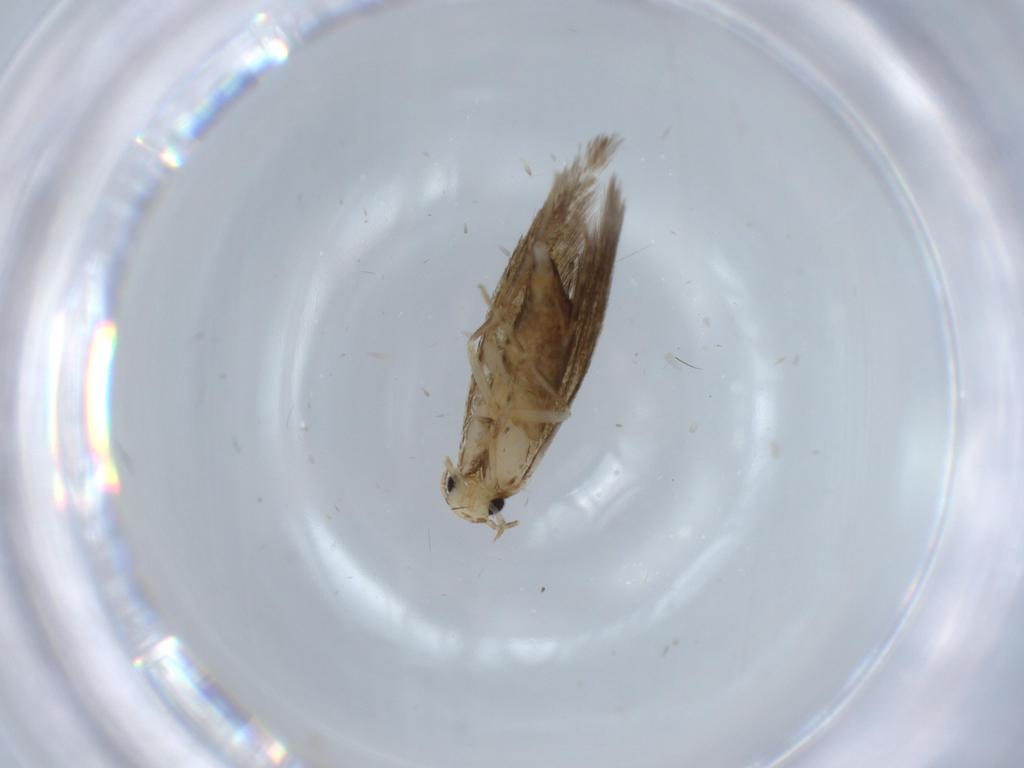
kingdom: Animalia
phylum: Arthropoda
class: Insecta
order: Lepidoptera
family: Tineidae
